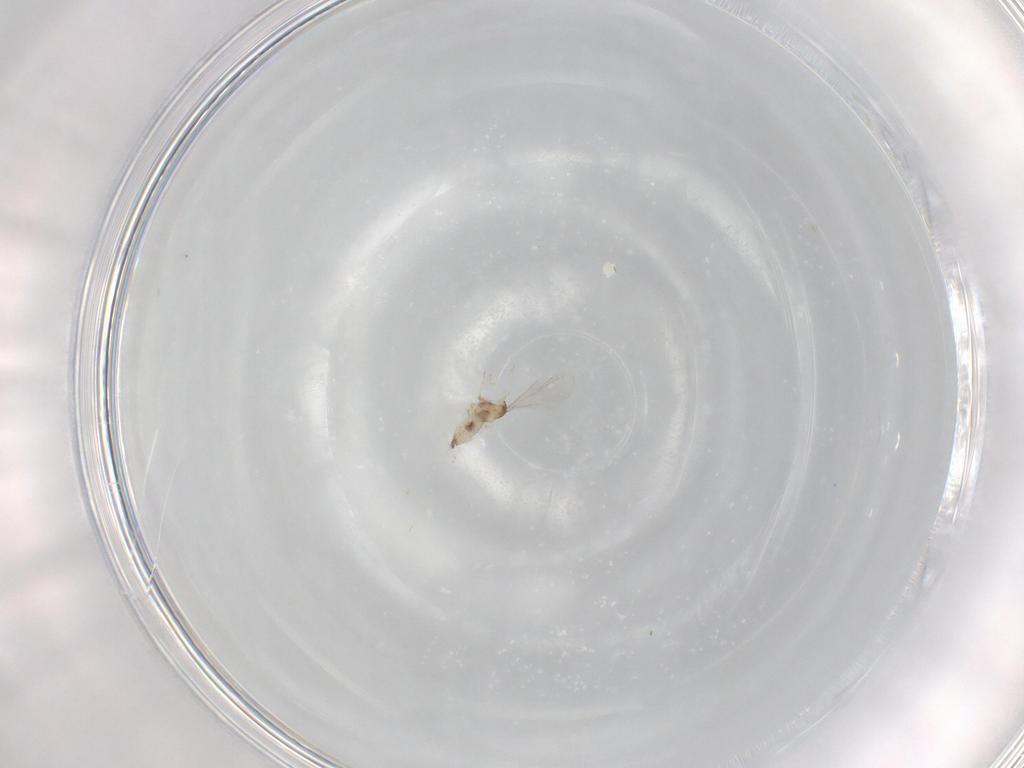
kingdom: Animalia
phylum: Arthropoda
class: Insecta
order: Diptera
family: Cecidomyiidae
